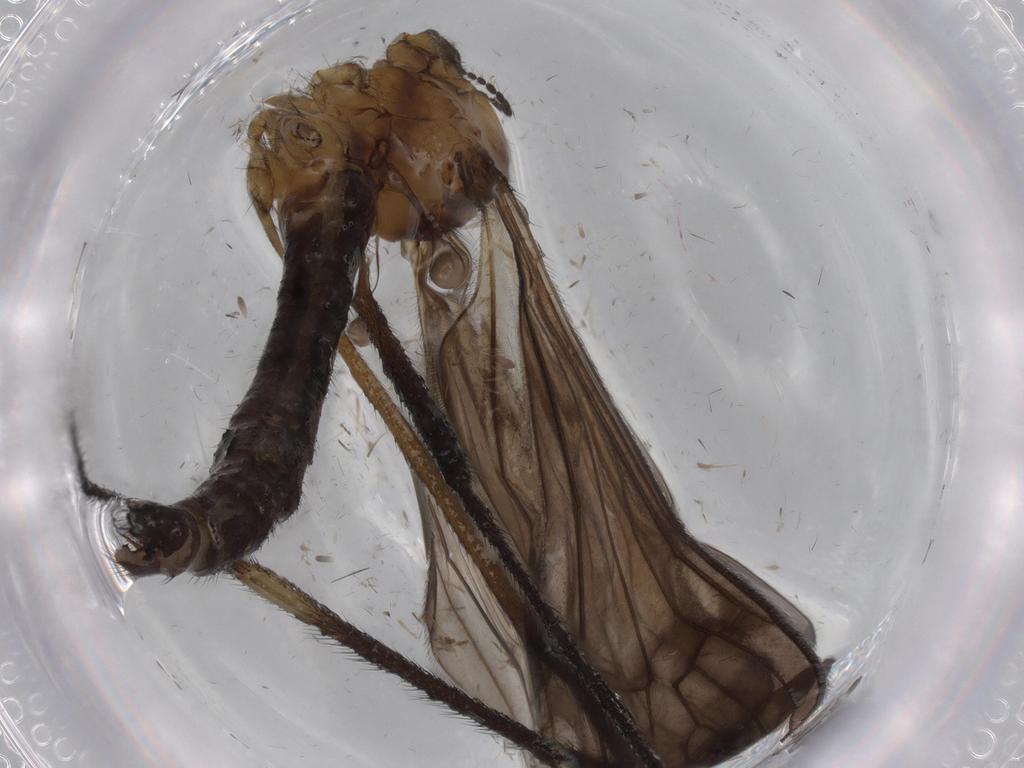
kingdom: Animalia
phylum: Arthropoda
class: Insecta
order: Diptera
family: Limoniidae
